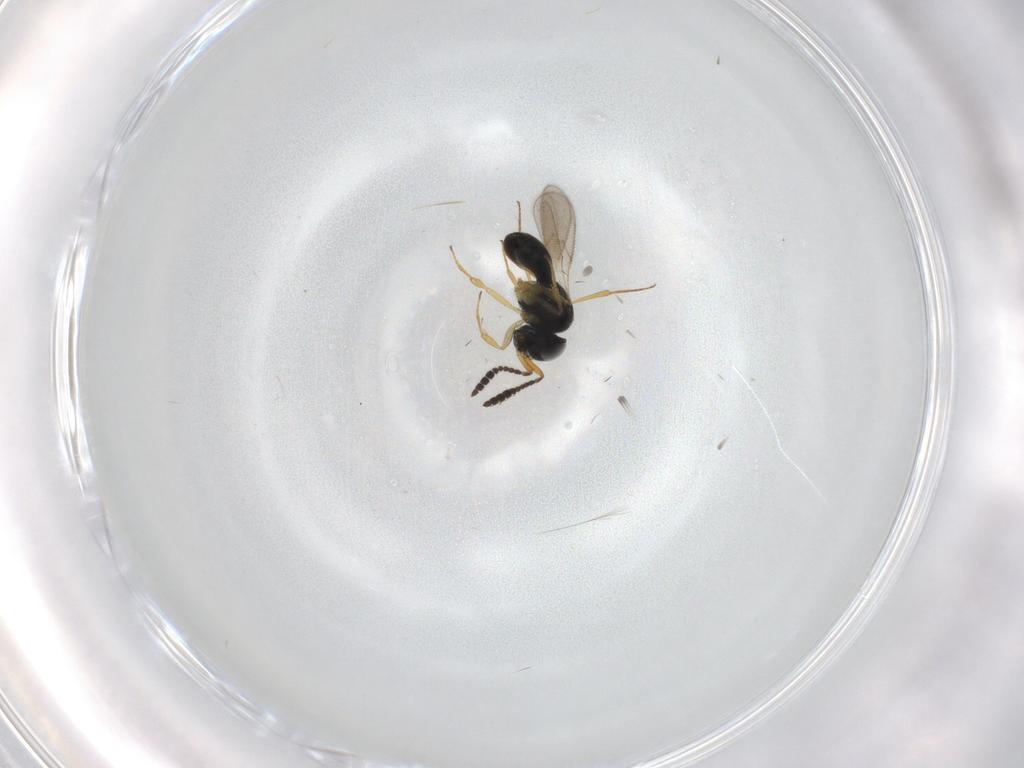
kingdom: Animalia
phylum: Arthropoda
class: Insecta
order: Hymenoptera
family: Scelionidae
